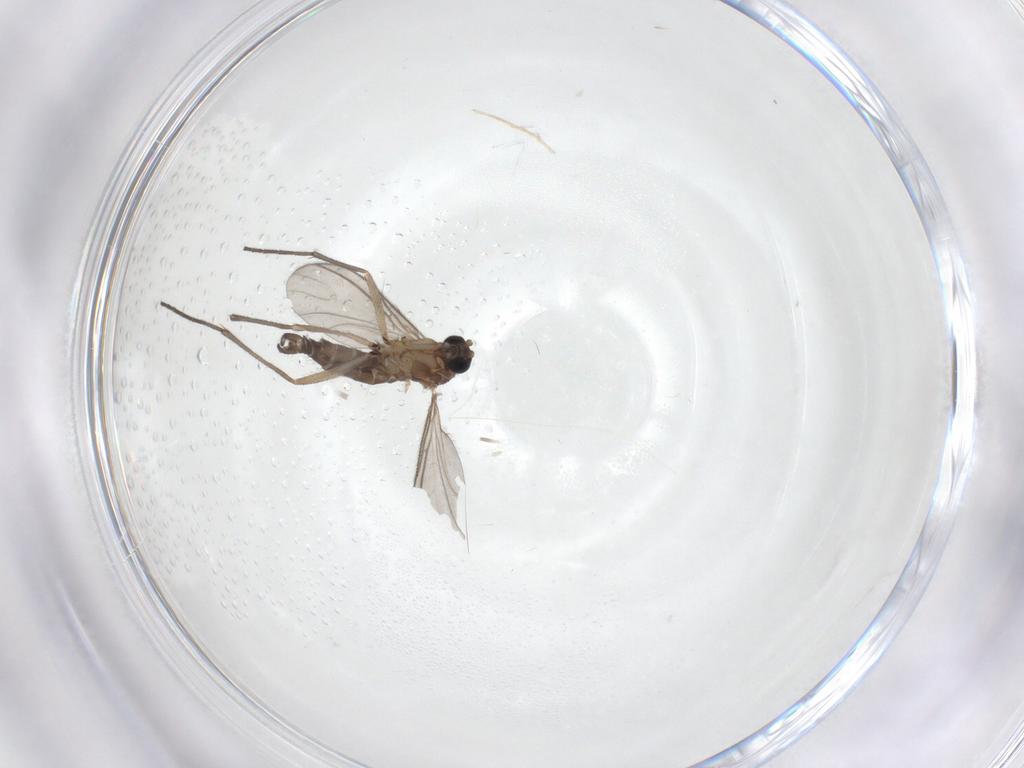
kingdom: Animalia
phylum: Arthropoda
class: Insecta
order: Diptera
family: Sciaridae
